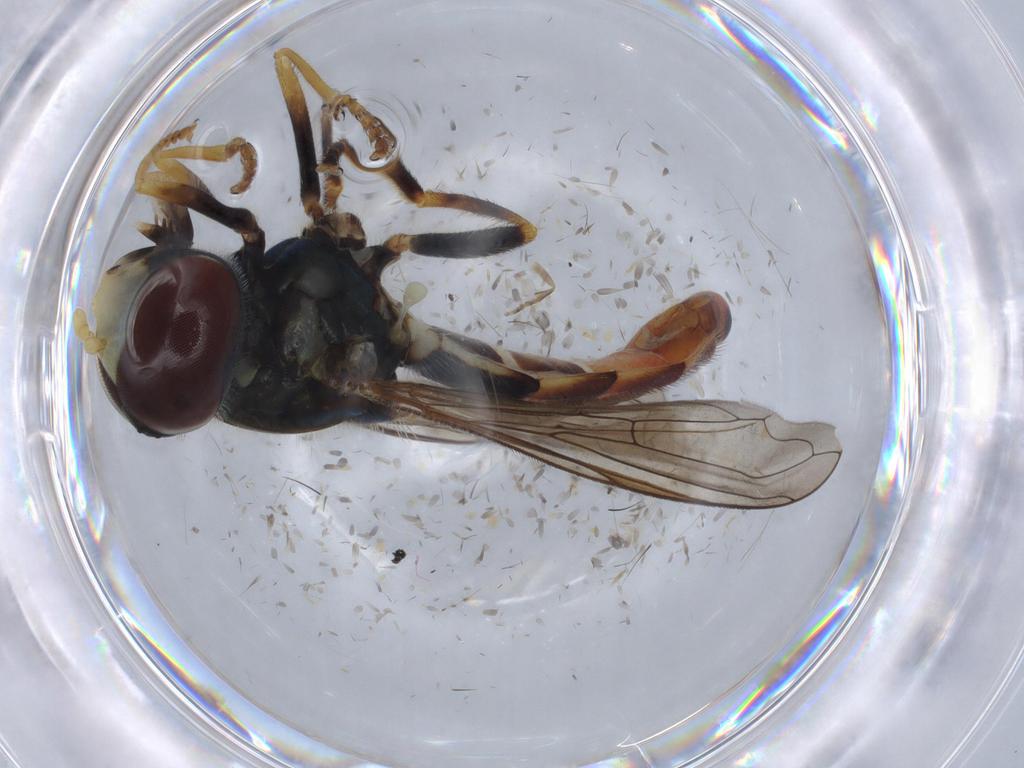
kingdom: Animalia
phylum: Arthropoda
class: Insecta
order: Diptera
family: Syrphidae
